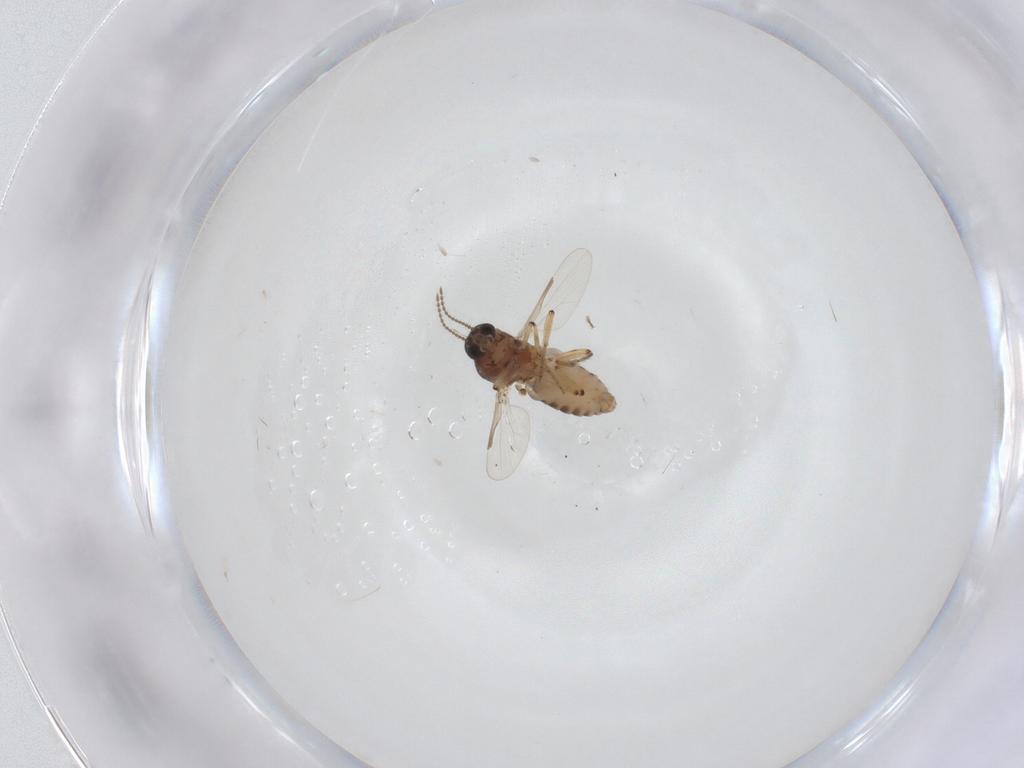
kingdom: Animalia
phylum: Arthropoda
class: Insecta
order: Diptera
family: Ceratopogonidae
